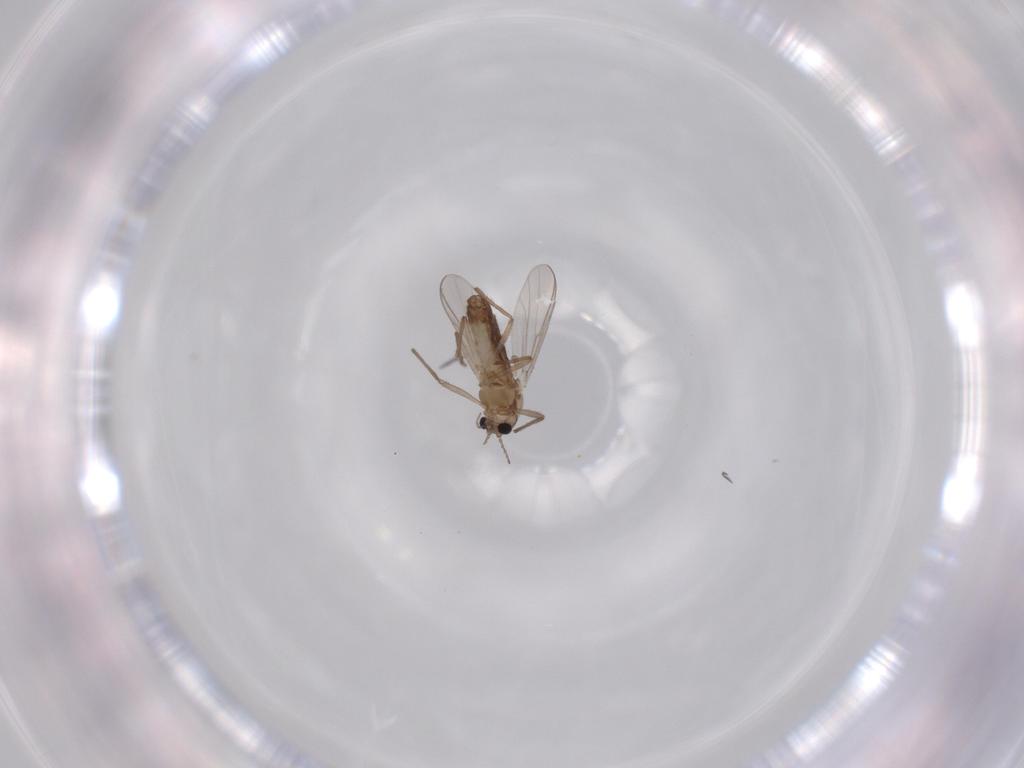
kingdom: Animalia
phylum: Arthropoda
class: Insecta
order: Diptera
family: Chironomidae
